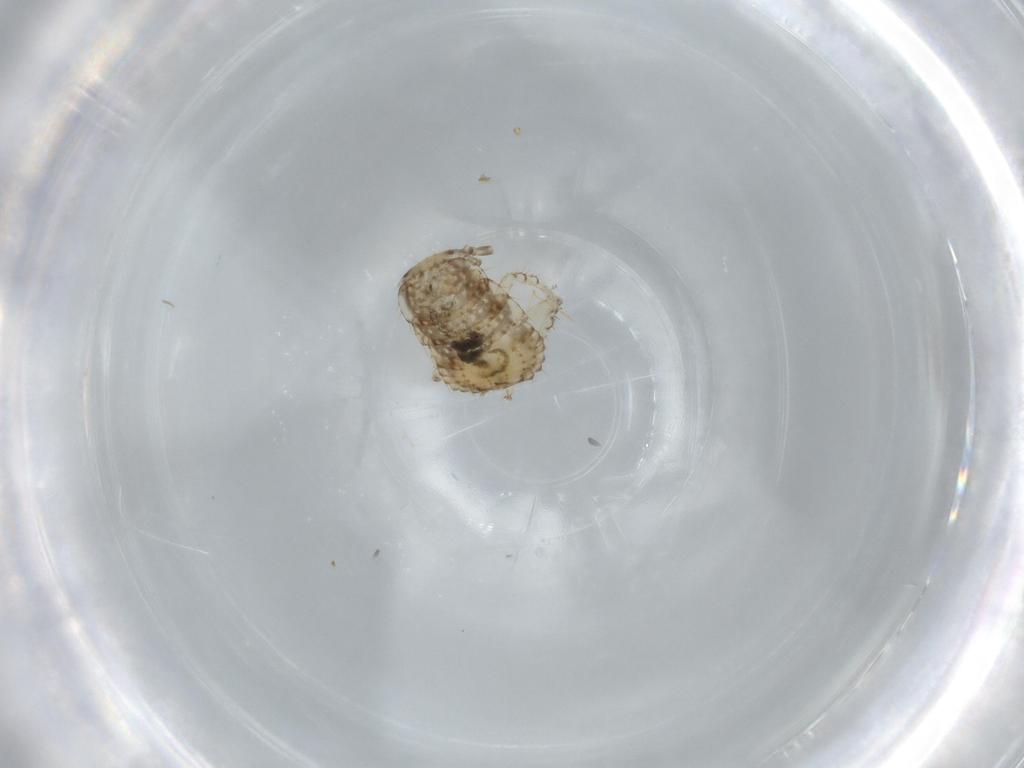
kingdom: Animalia
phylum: Arthropoda
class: Insecta
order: Blattodea
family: Ectobiidae
